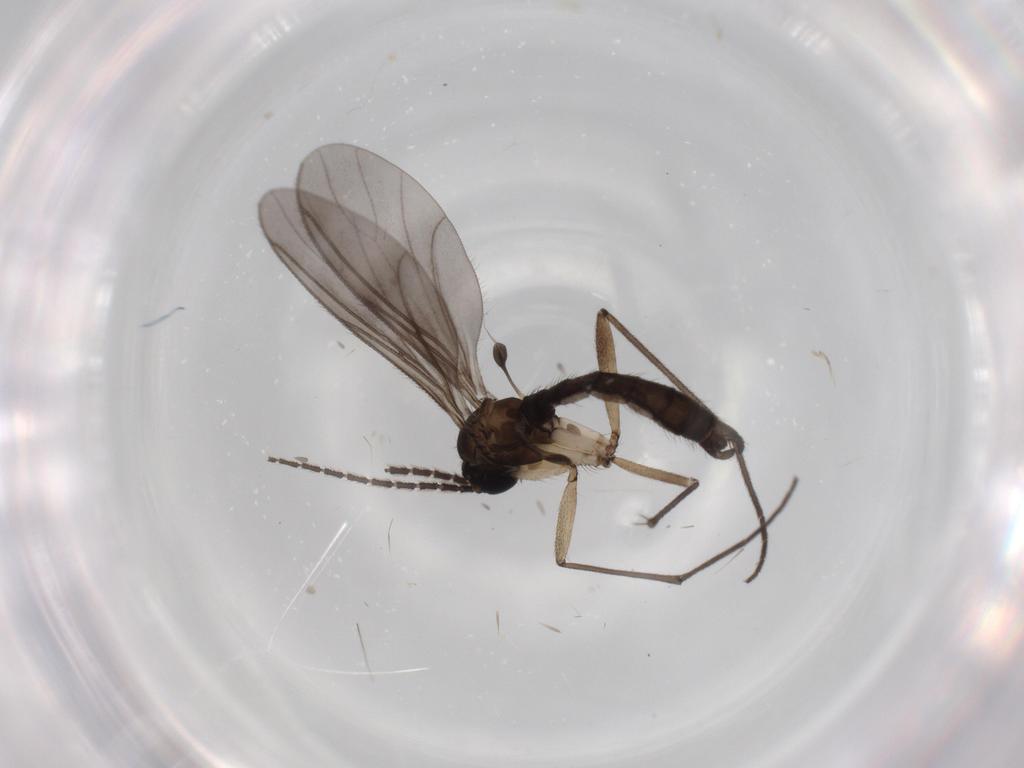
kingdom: Animalia
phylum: Arthropoda
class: Insecta
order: Diptera
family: Sciaridae
